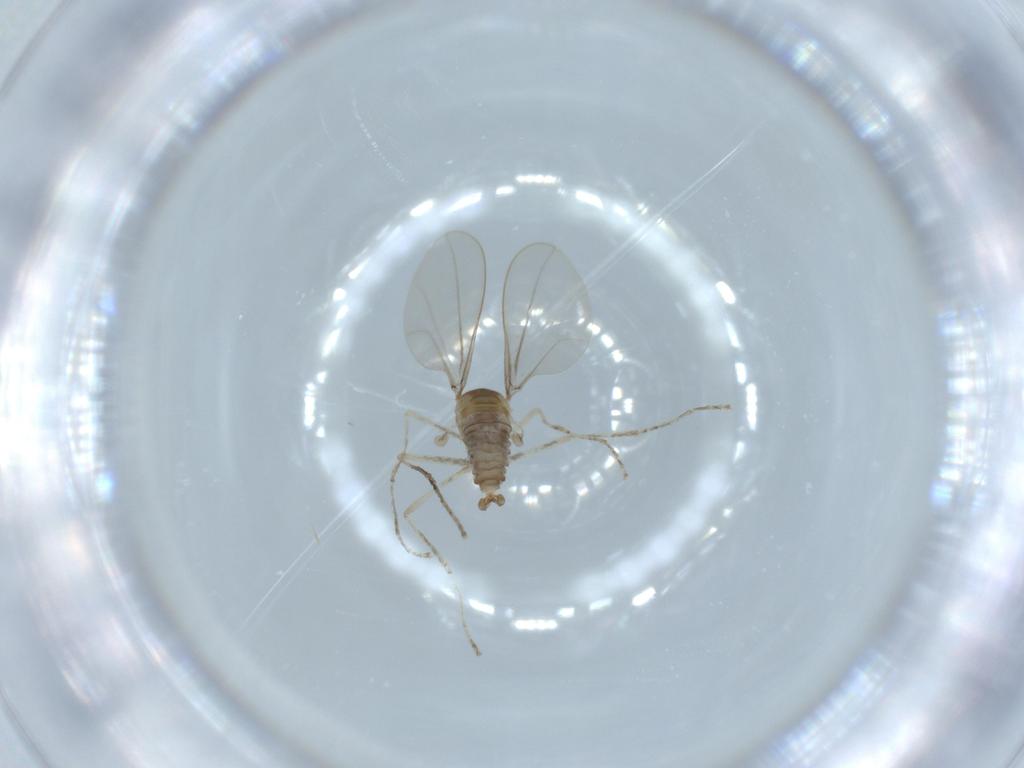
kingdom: Animalia
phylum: Arthropoda
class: Insecta
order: Diptera
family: Cecidomyiidae
